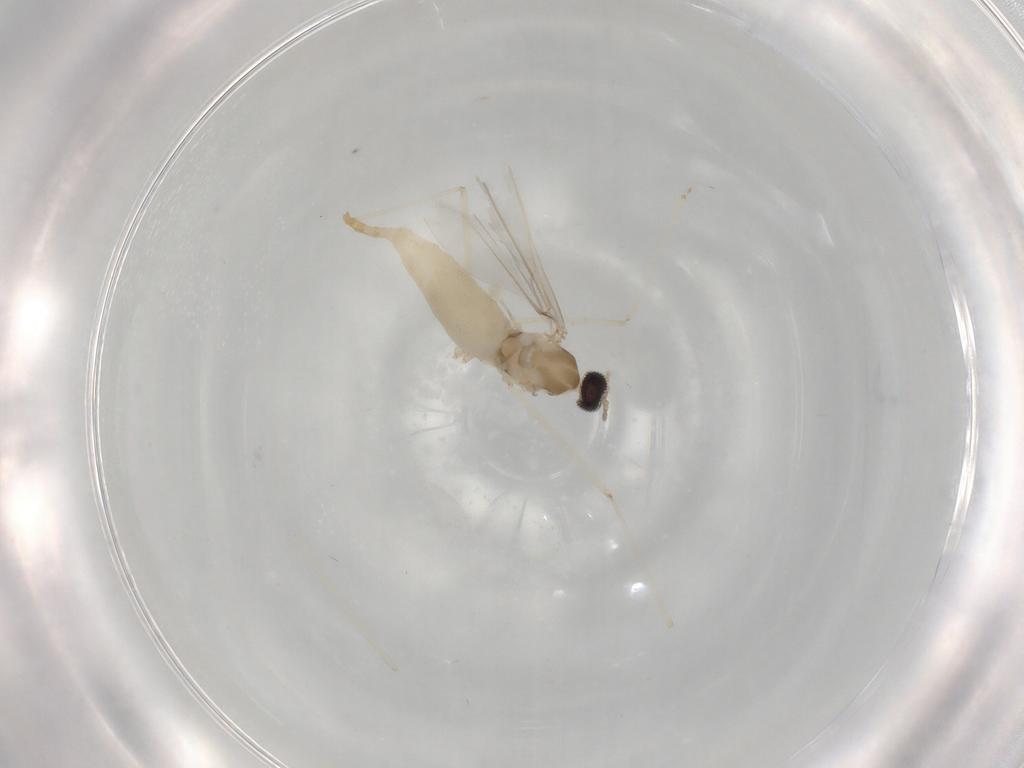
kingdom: Animalia
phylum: Arthropoda
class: Insecta
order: Diptera
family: Cecidomyiidae
